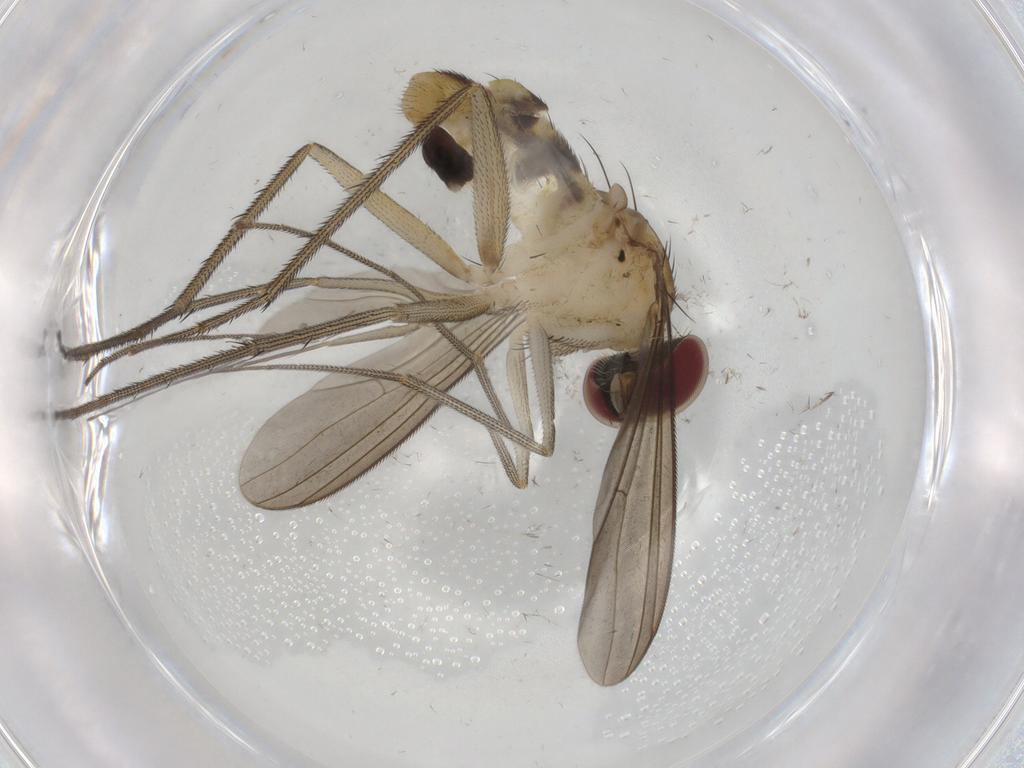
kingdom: Animalia
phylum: Arthropoda
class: Insecta
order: Diptera
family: Dolichopodidae
